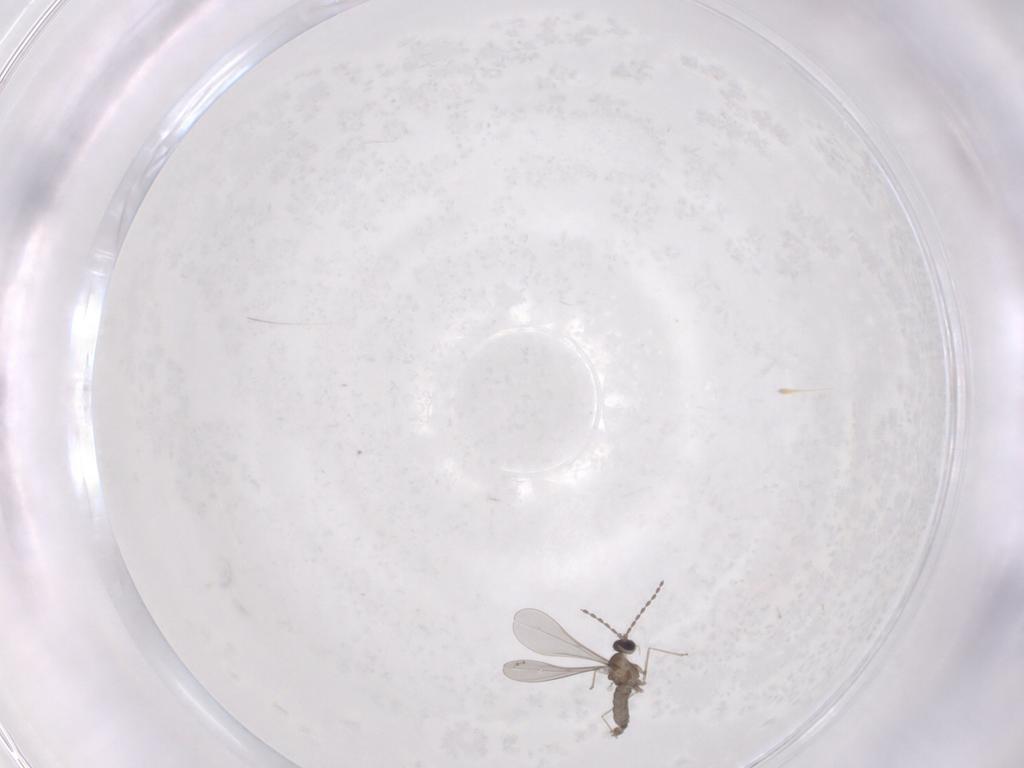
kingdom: Animalia
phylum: Arthropoda
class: Insecta
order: Diptera
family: Cecidomyiidae
